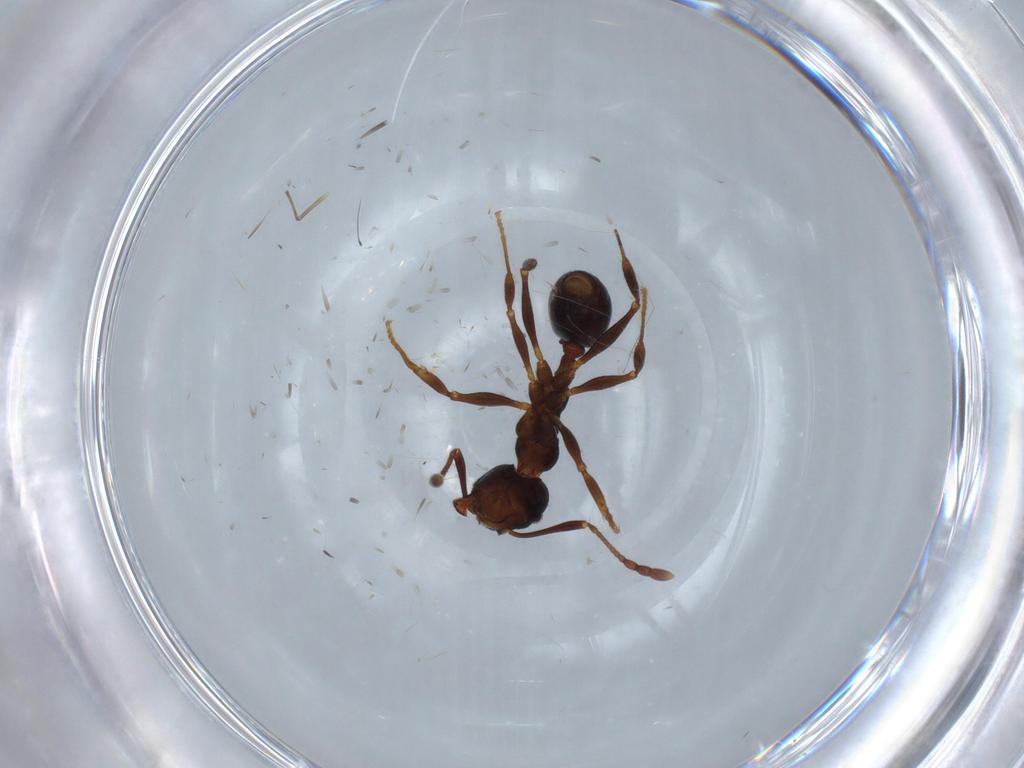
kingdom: Animalia
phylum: Arthropoda
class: Insecta
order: Hymenoptera
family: Formicidae
